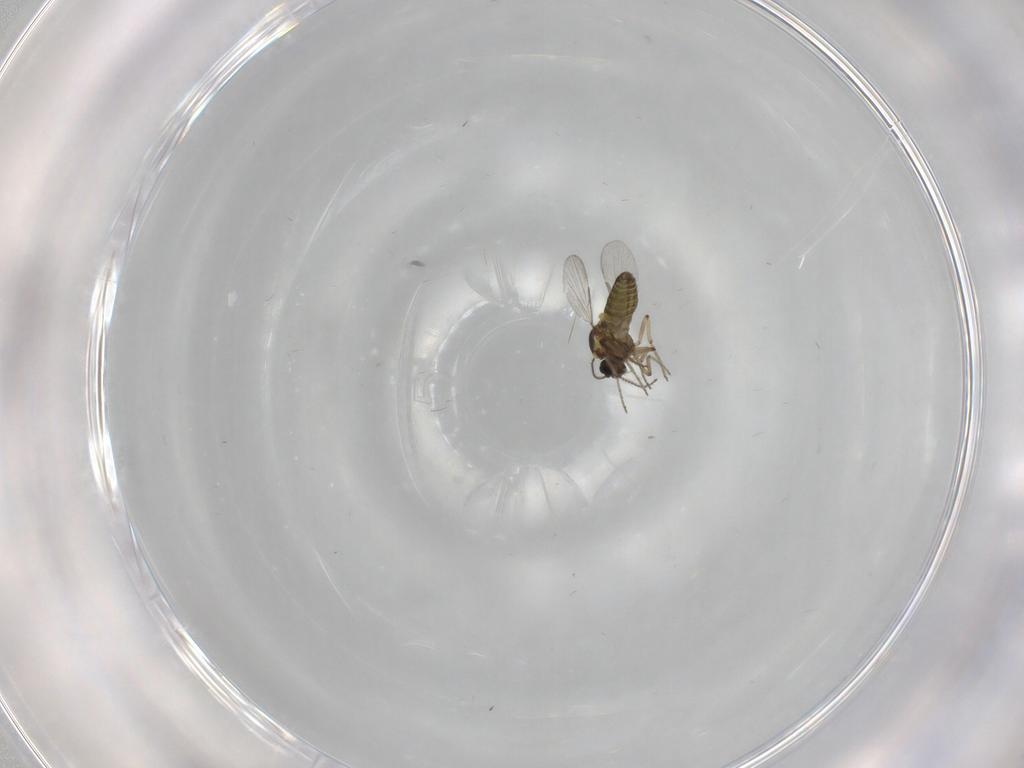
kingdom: Animalia
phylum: Arthropoda
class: Insecta
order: Diptera
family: Ceratopogonidae
